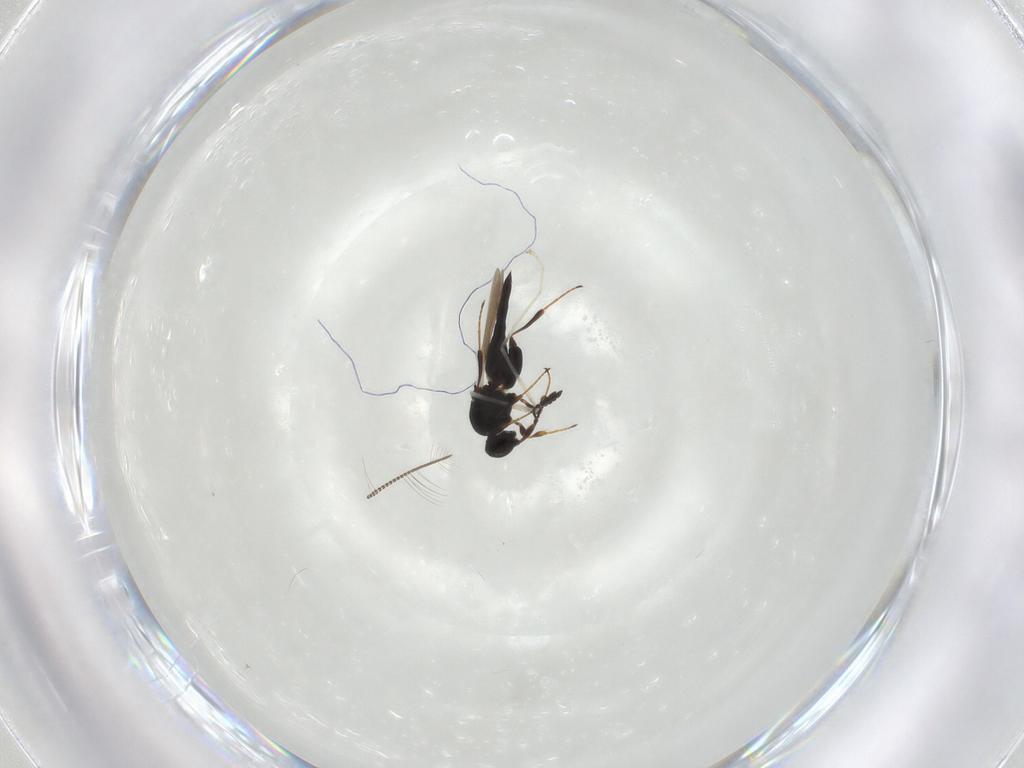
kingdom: Animalia
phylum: Arthropoda
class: Insecta
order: Hymenoptera
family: Platygastridae
